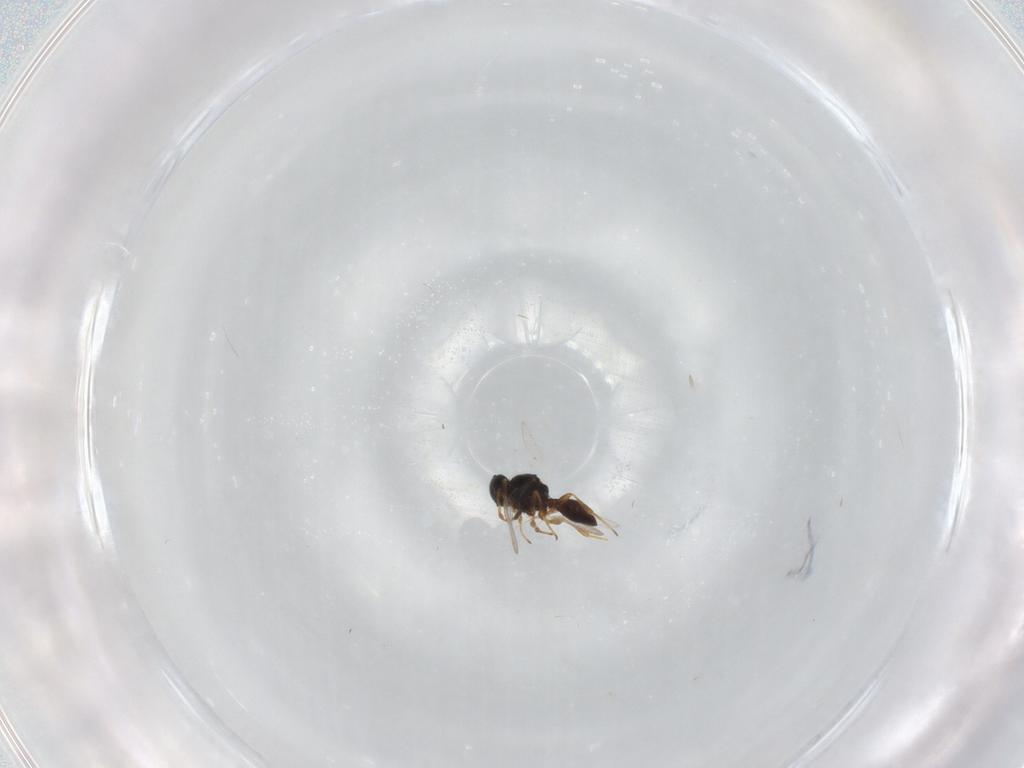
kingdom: Animalia
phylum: Arthropoda
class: Insecta
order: Hymenoptera
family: Platygastridae
